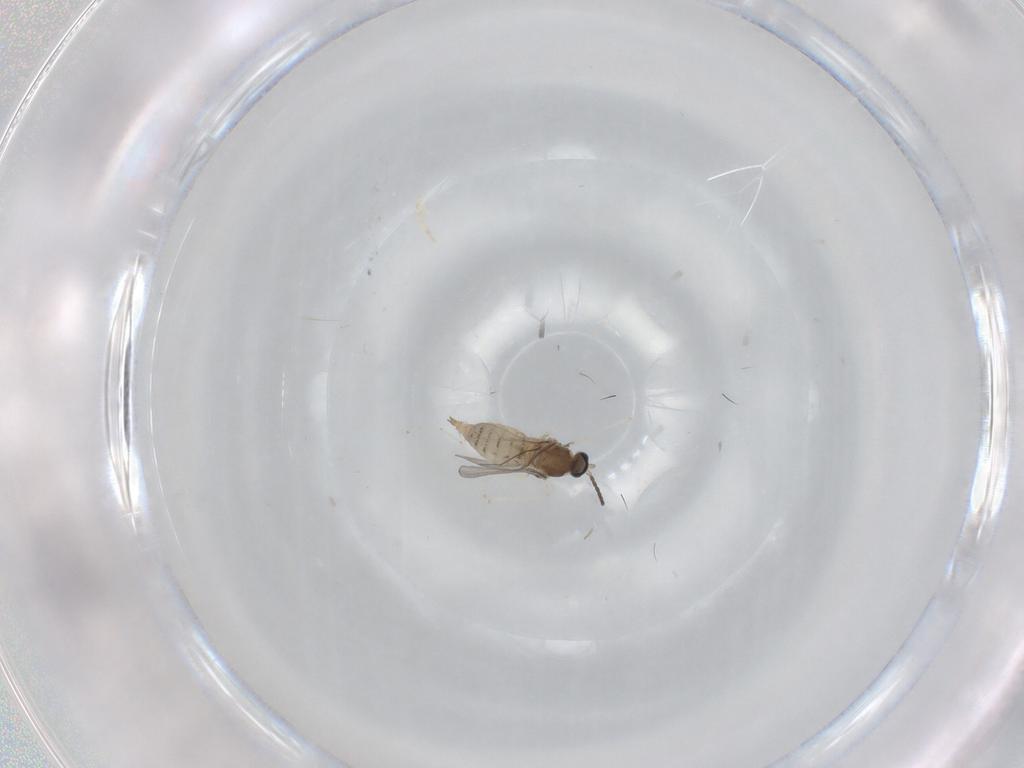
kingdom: Animalia
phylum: Arthropoda
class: Insecta
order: Diptera
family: Cecidomyiidae
